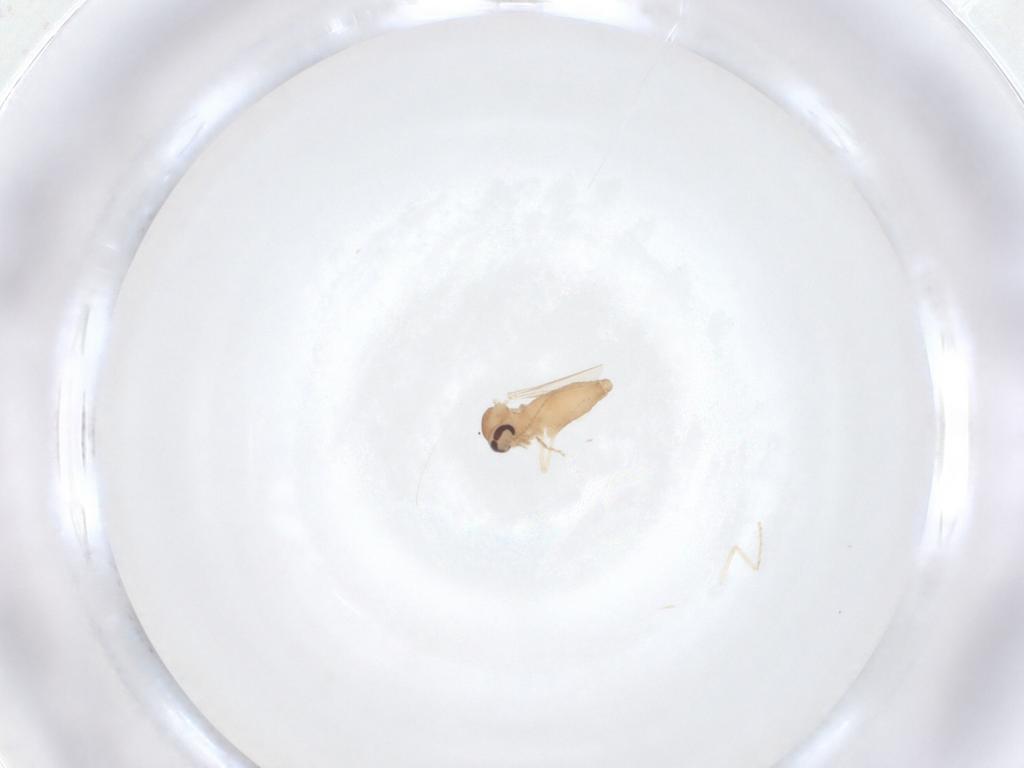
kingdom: Animalia
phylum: Arthropoda
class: Insecta
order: Diptera
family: Ceratopogonidae
